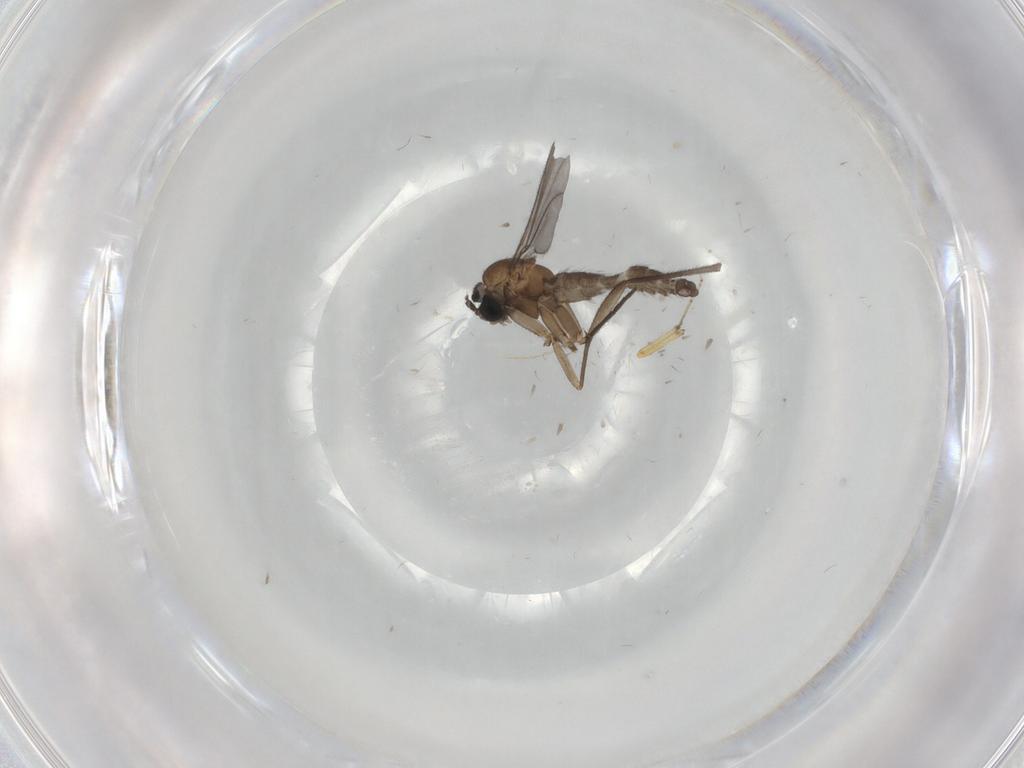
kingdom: Animalia
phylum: Arthropoda
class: Insecta
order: Diptera
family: Sciaridae
